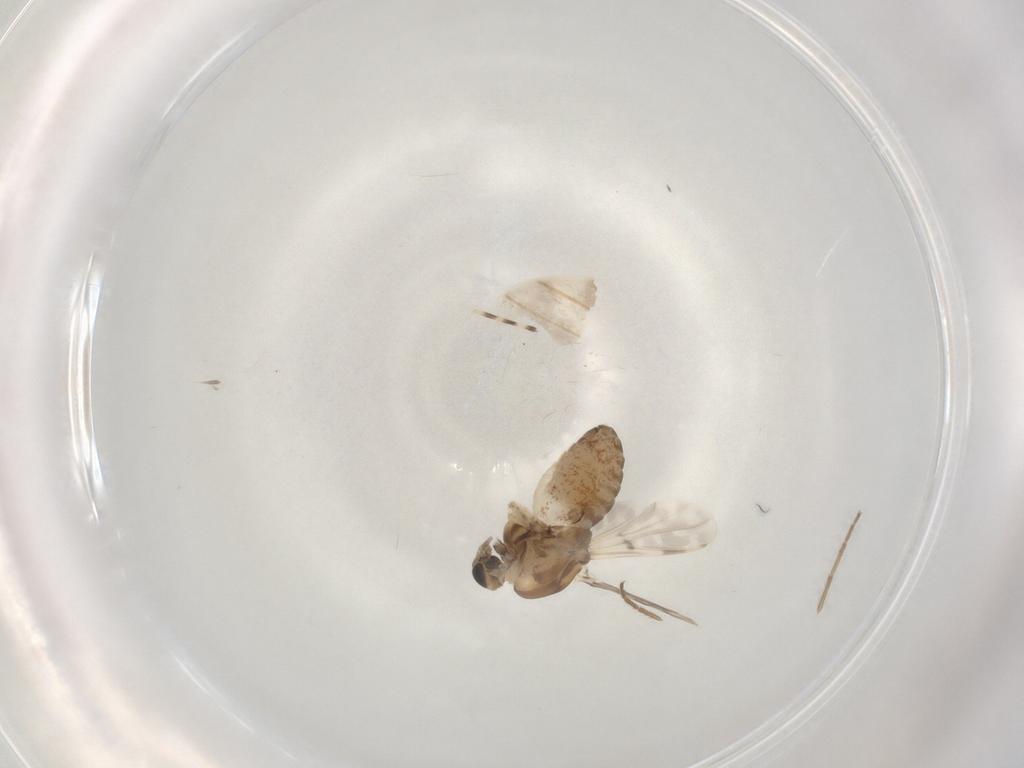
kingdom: Animalia
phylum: Arthropoda
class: Insecta
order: Diptera
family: Chironomidae
